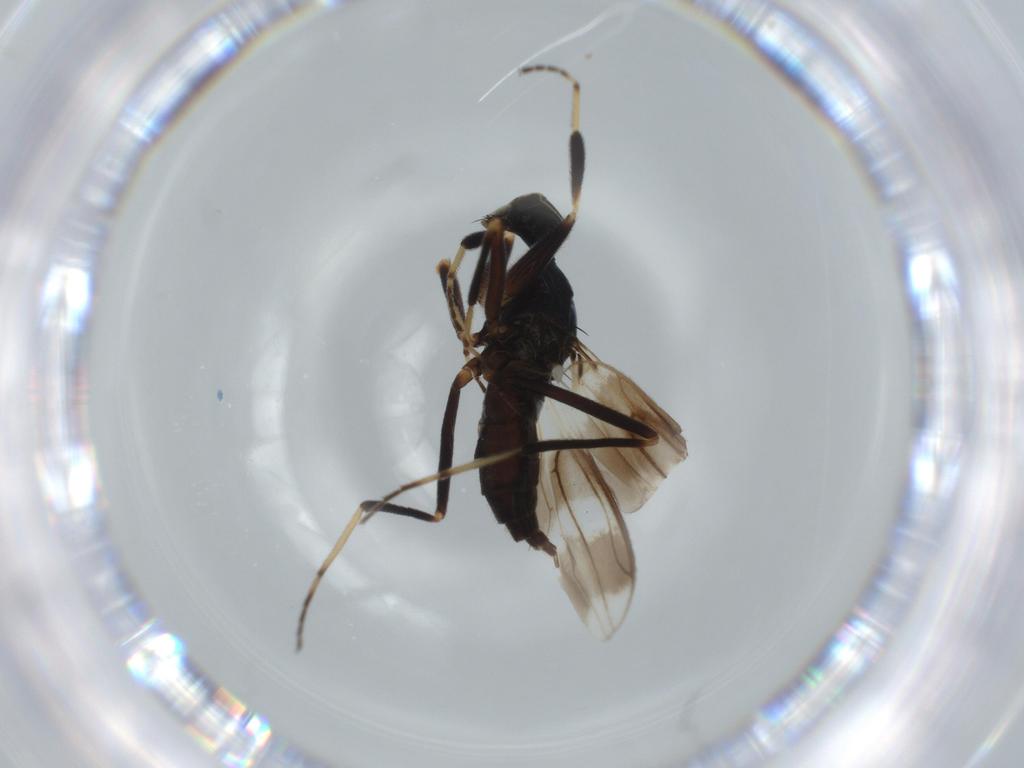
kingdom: Animalia
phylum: Arthropoda
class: Insecta
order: Diptera
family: Hybotidae
